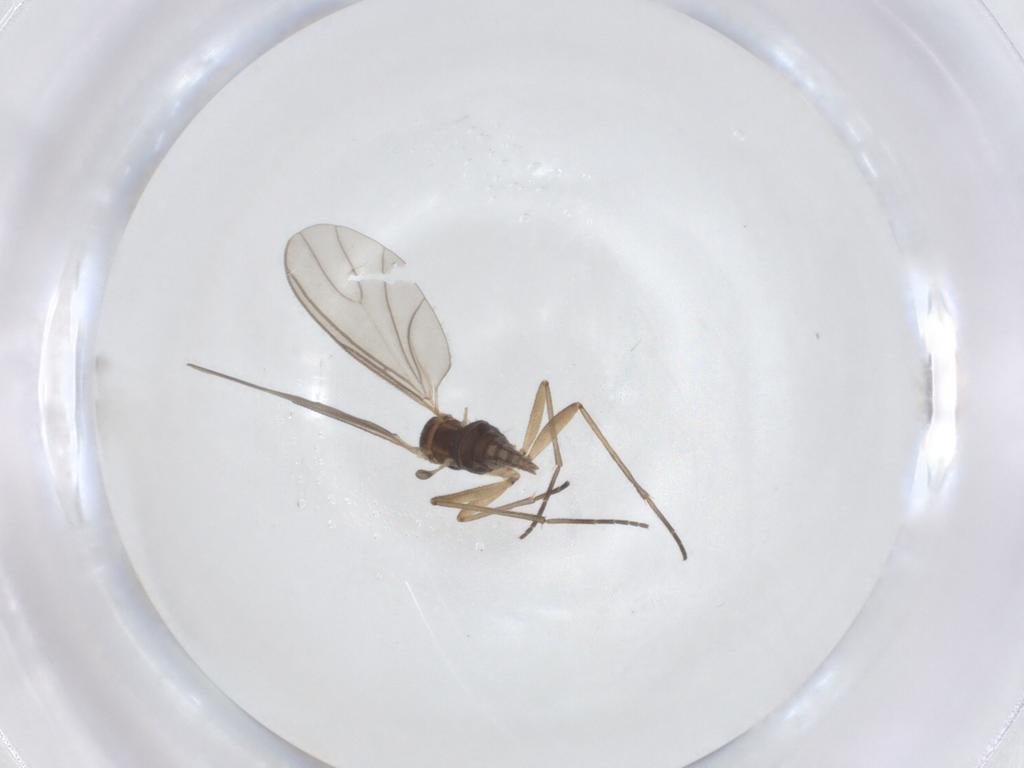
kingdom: Animalia
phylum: Arthropoda
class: Insecta
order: Diptera
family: Sciaridae
